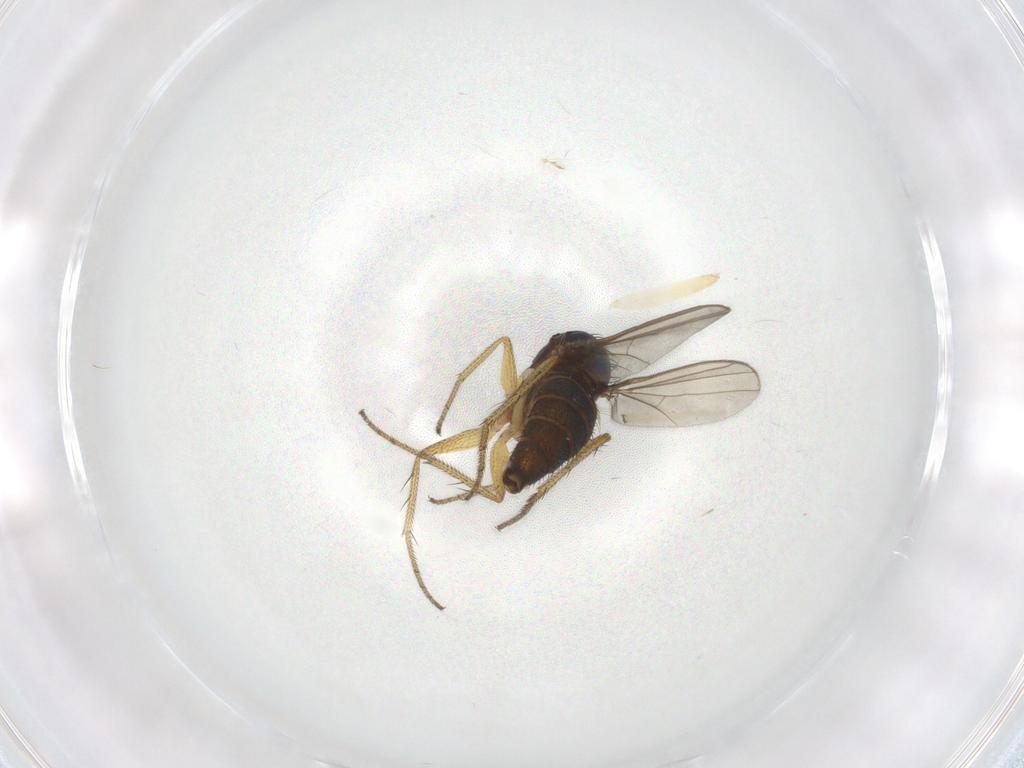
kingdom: Animalia
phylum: Arthropoda
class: Insecta
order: Diptera
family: Dolichopodidae
